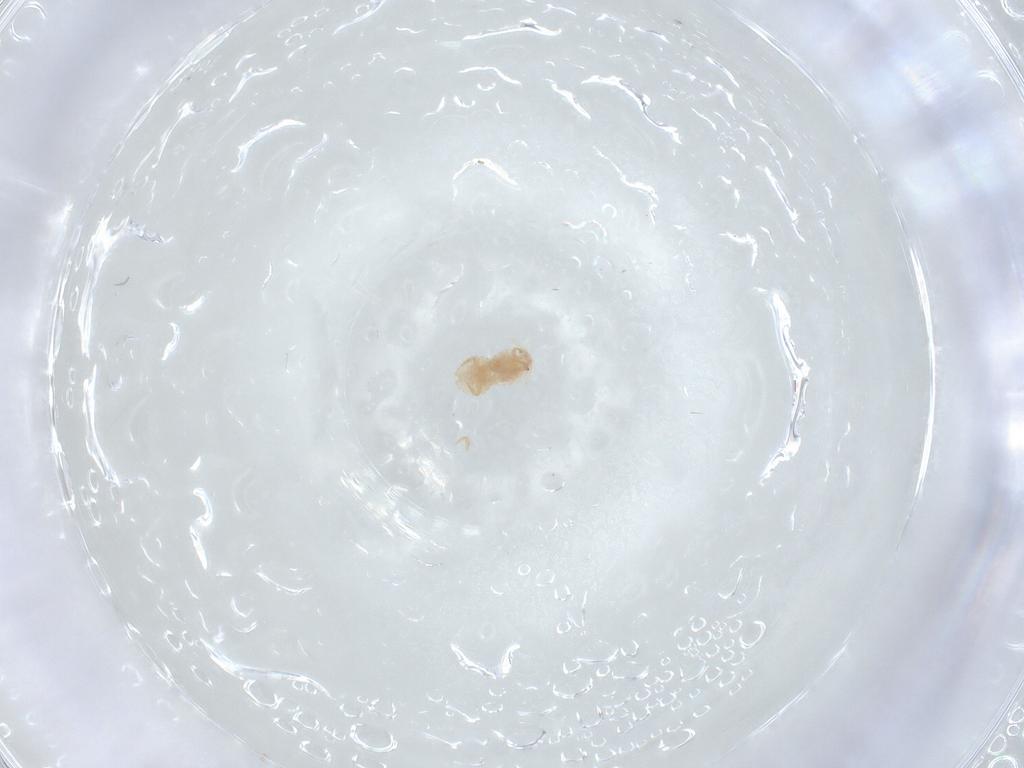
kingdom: Animalia
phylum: Arthropoda
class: Insecta
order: Hemiptera
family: Pseudococcidae
